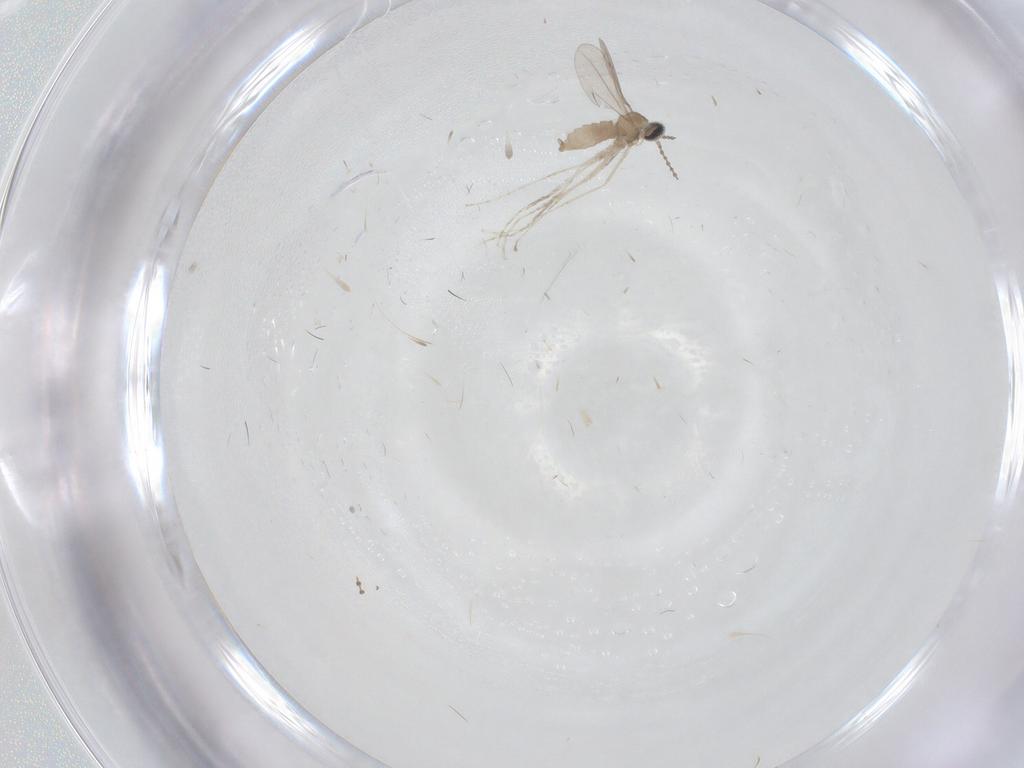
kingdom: Animalia
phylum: Arthropoda
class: Insecta
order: Diptera
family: Cecidomyiidae
